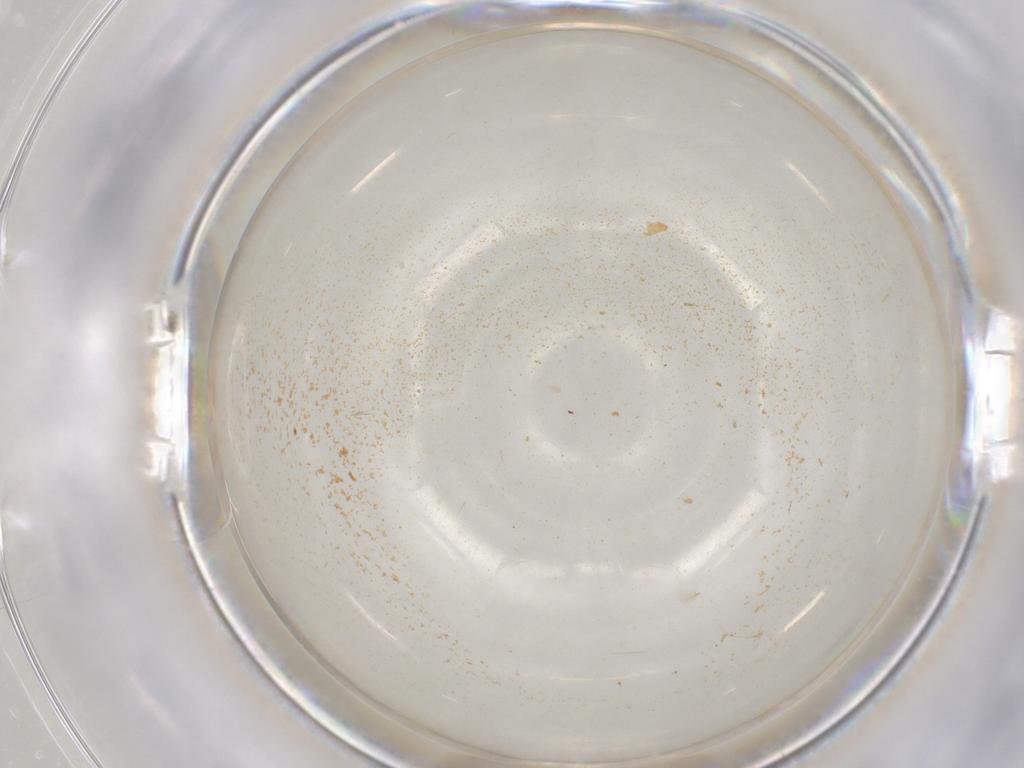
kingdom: Animalia
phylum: Arthropoda
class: Insecta
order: Diptera
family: Cecidomyiidae
